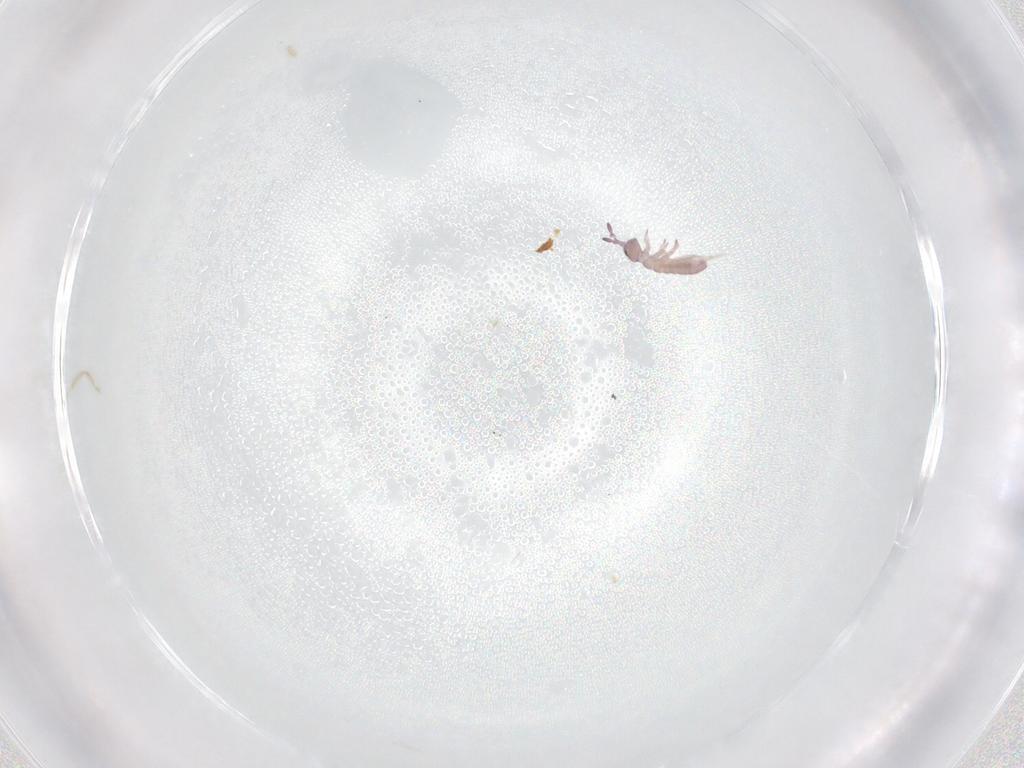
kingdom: Animalia
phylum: Arthropoda
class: Collembola
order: Entomobryomorpha
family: Isotomidae
